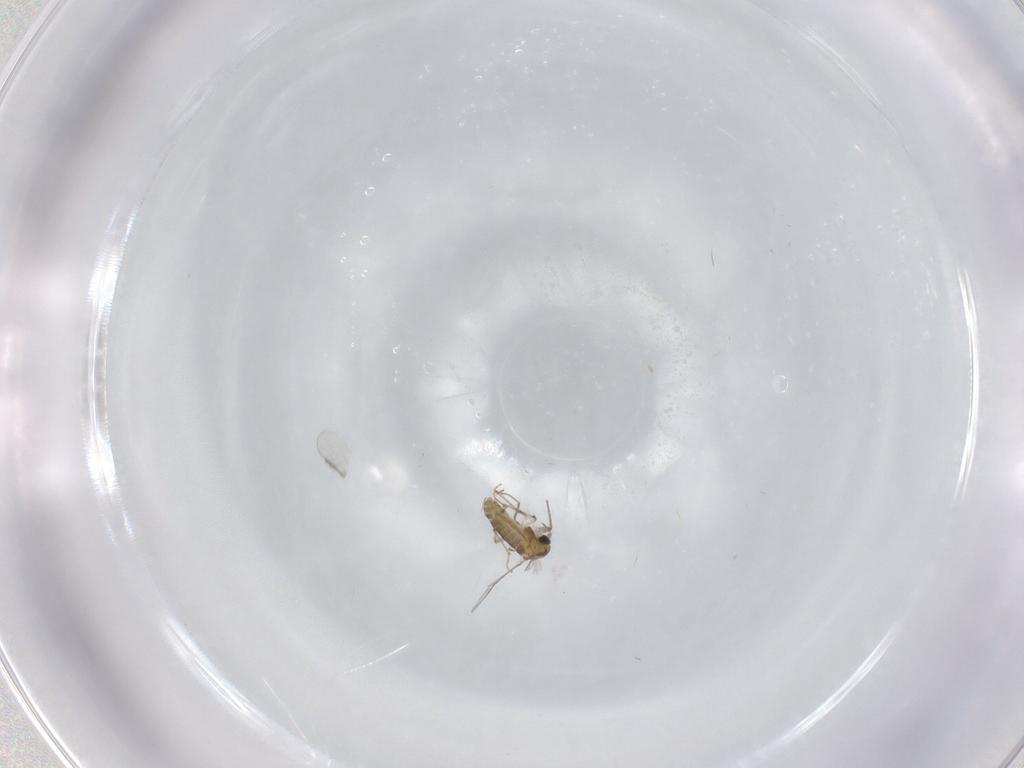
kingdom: Animalia
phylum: Arthropoda
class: Insecta
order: Diptera
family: Chironomidae
